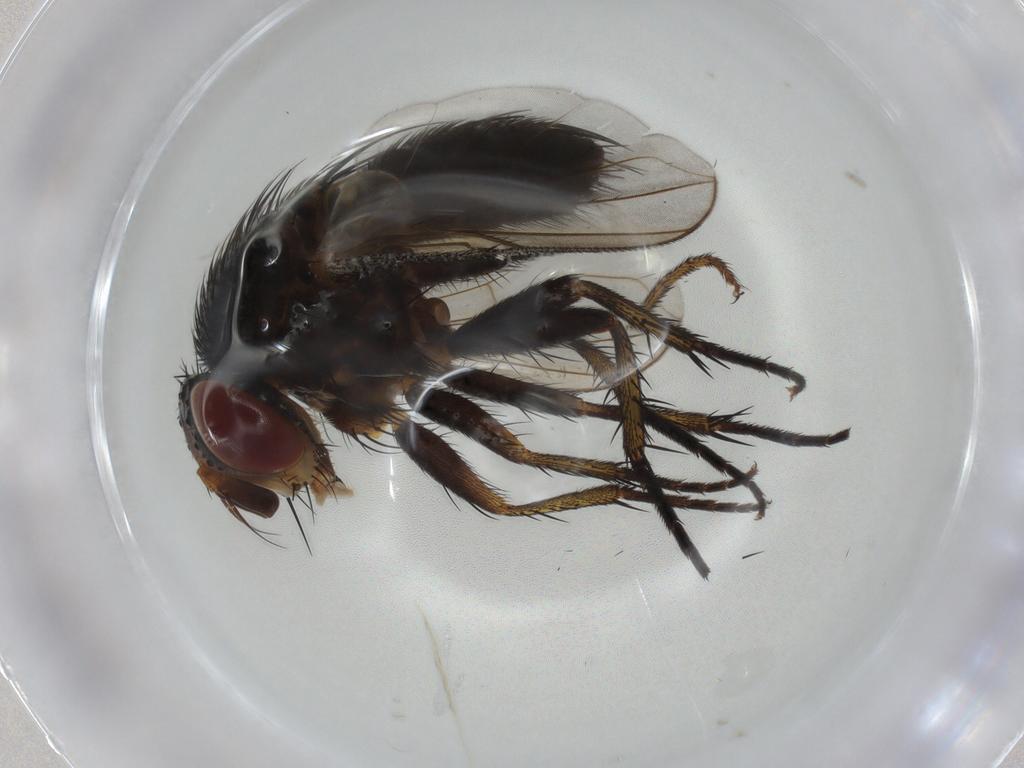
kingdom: Animalia
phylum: Arthropoda
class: Insecta
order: Diptera
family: Tachinidae
